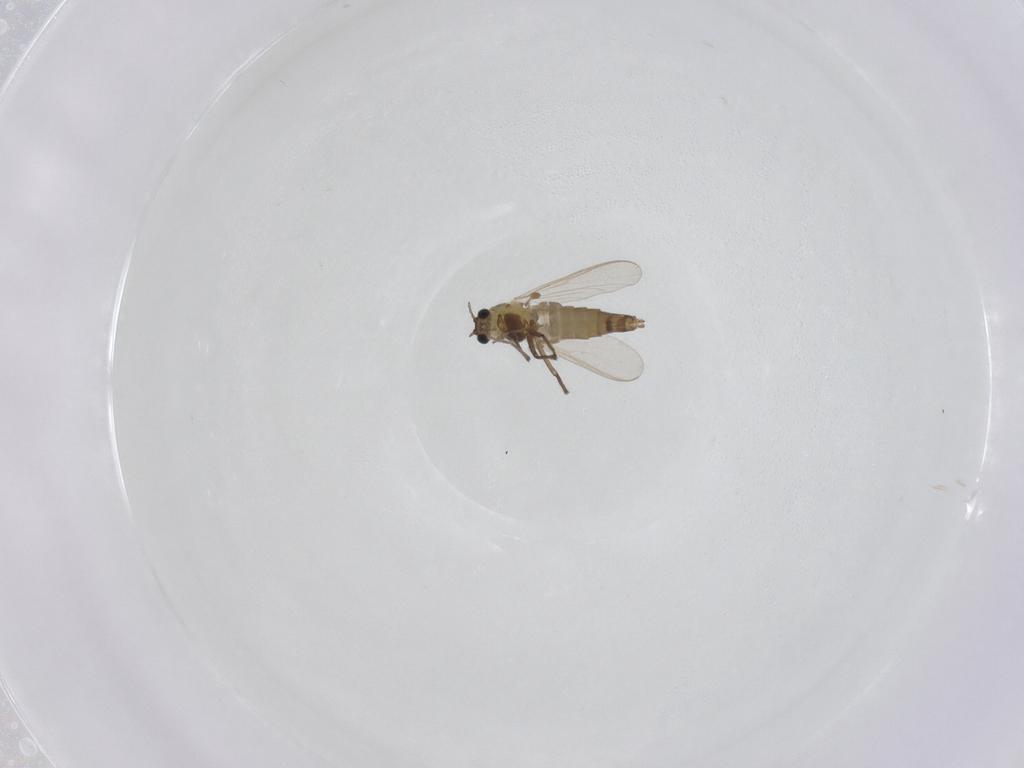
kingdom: Animalia
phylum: Arthropoda
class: Insecta
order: Diptera
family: Chironomidae
